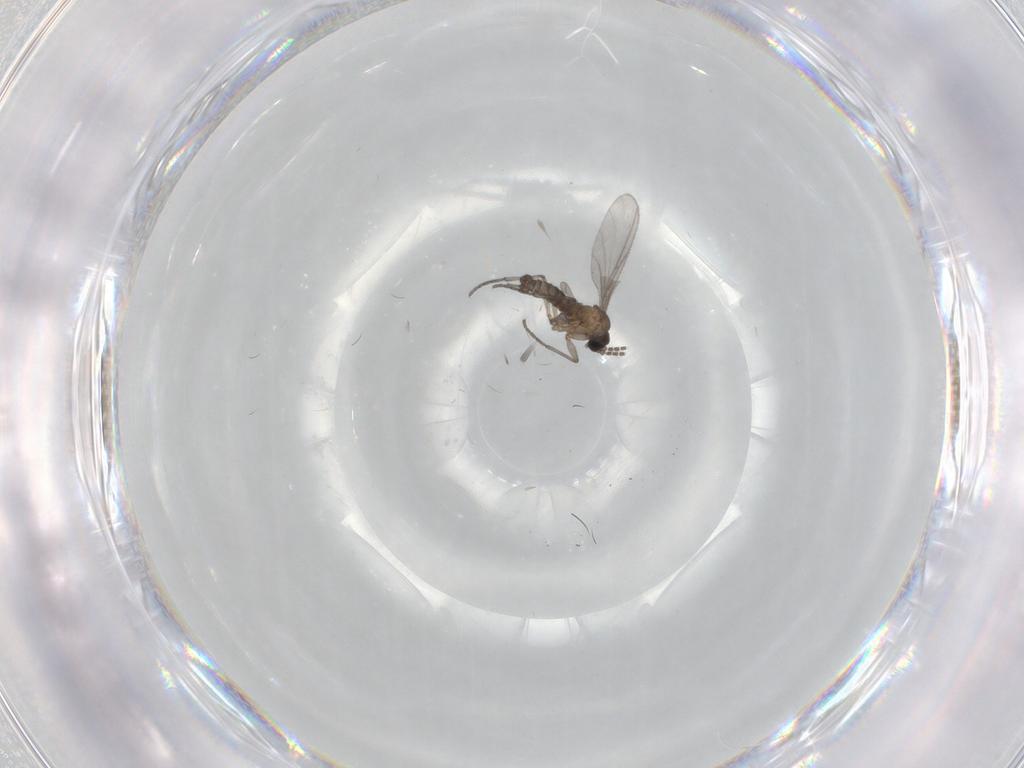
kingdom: Animalia
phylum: Arthropoda
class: Insecta
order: Diptera
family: Sciaridae
